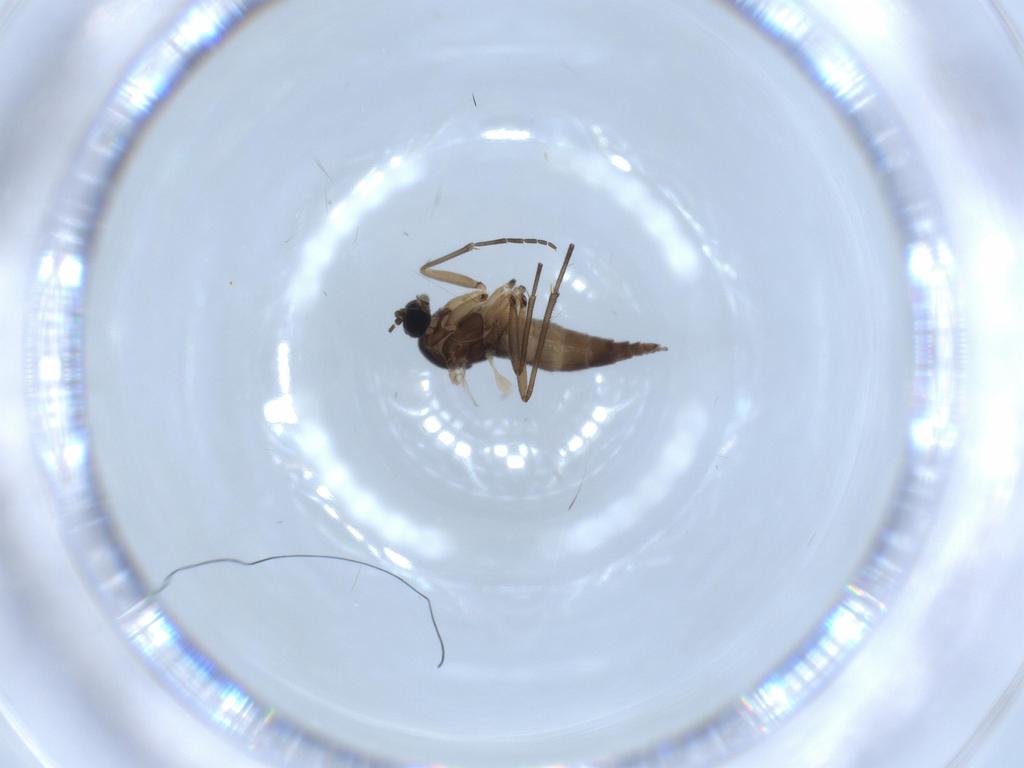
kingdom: Animalia
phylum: Arthropoda
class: Insecta
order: Diptera
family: Sciaridae
